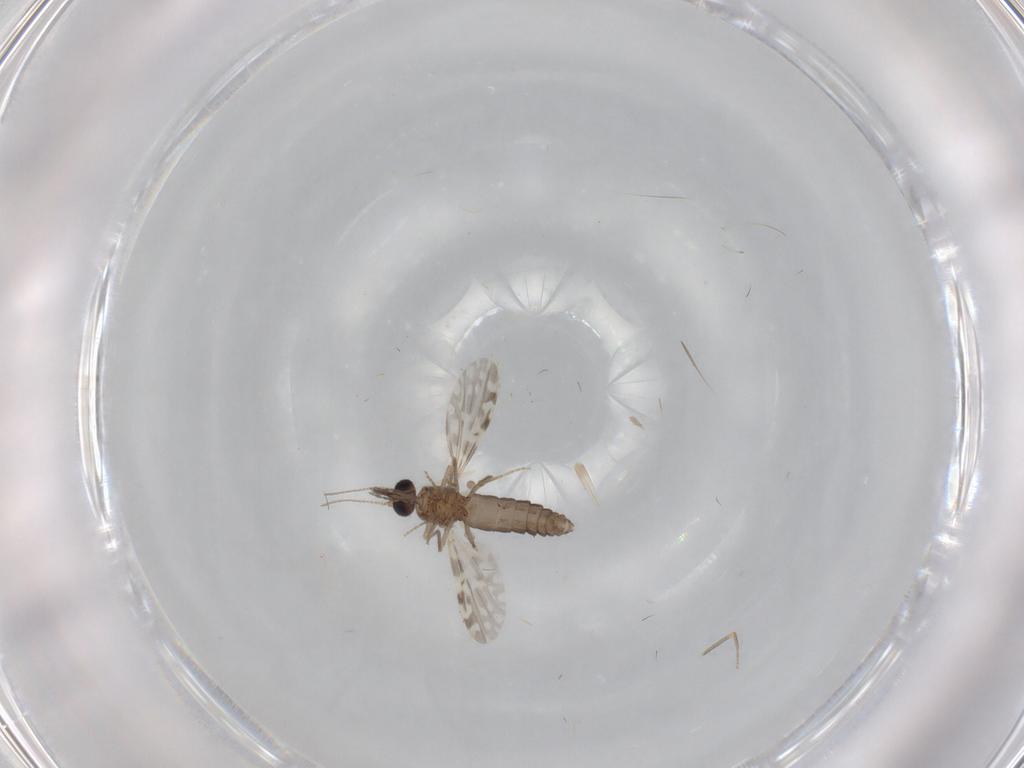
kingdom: Animalia
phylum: Arthropoda
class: Insecta
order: Diptera
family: Ceratopogonidae
